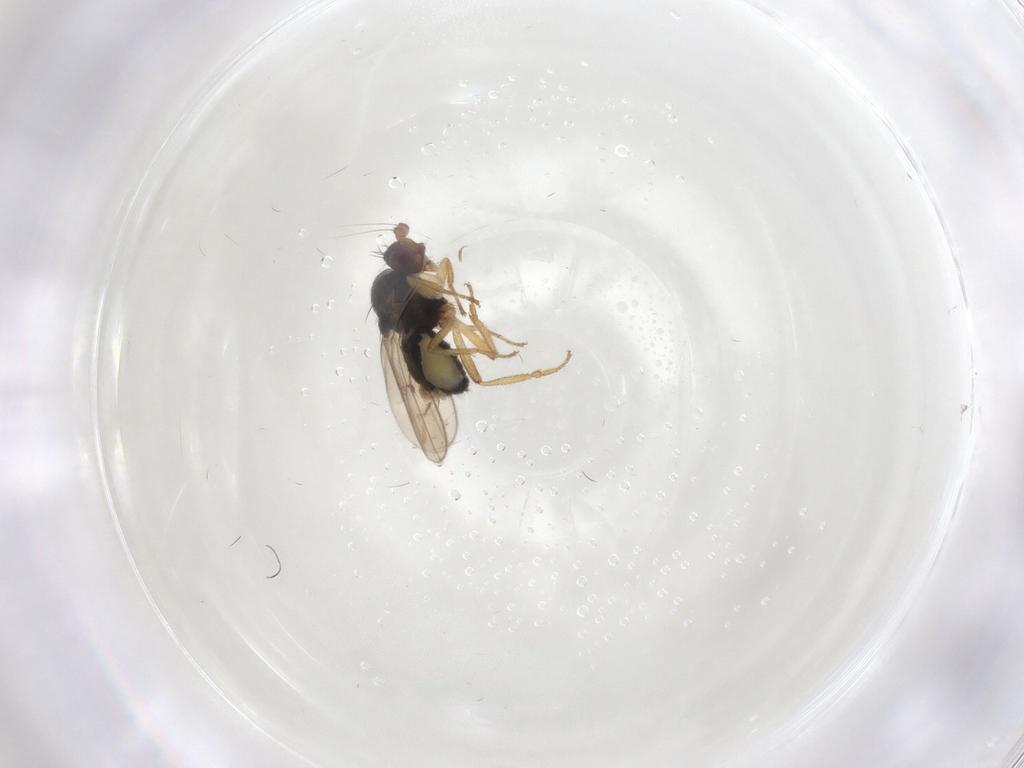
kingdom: Animalia
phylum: Arthropoda
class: Insecta
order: Diptera
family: Sphaeroceridae
